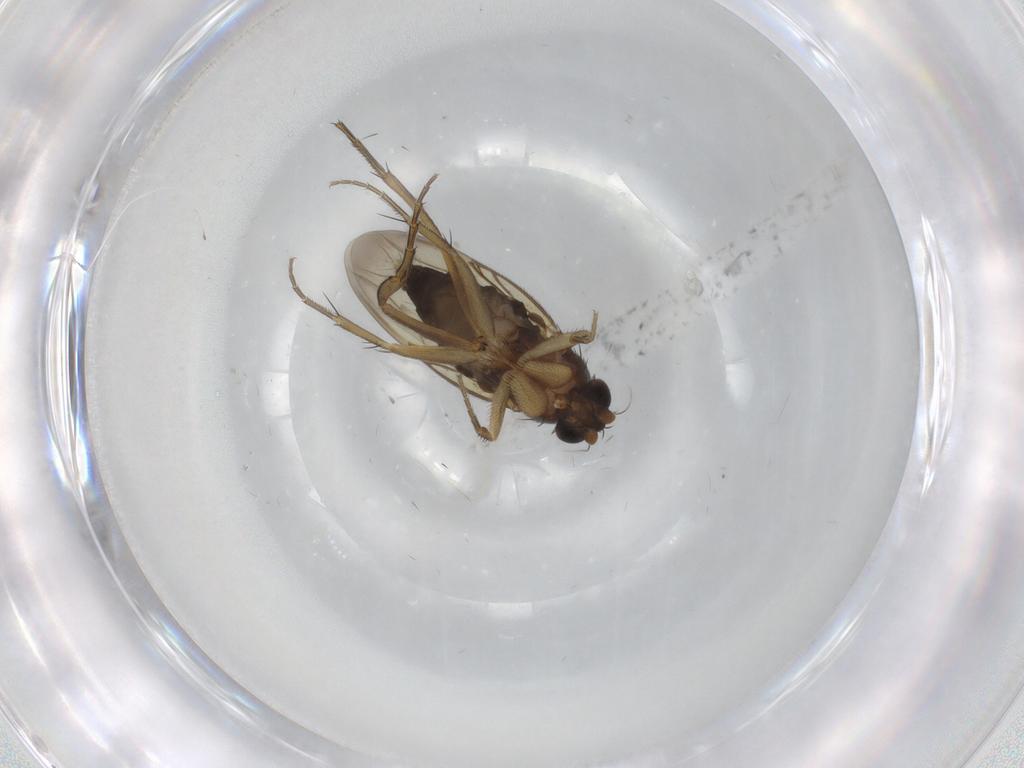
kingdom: Animalia
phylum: Arthropoda
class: Insecta
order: Diptera
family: Phoridae
